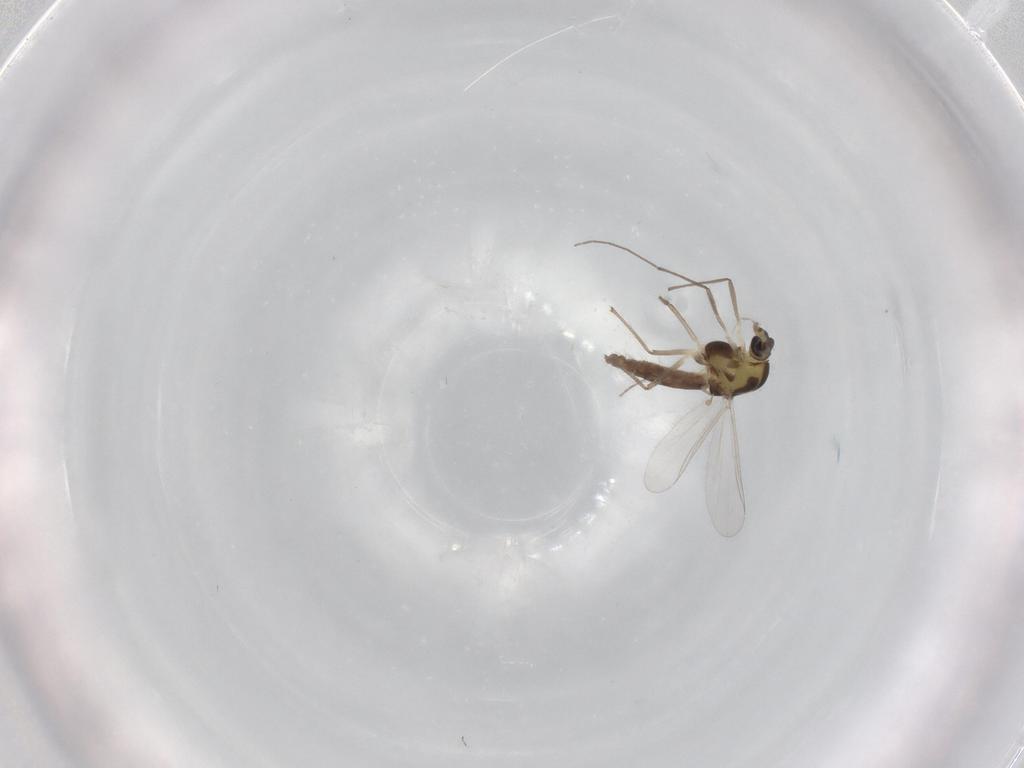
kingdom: Animalia
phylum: Arthropoda
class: Insecta
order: Diptera
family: Chironomidae
